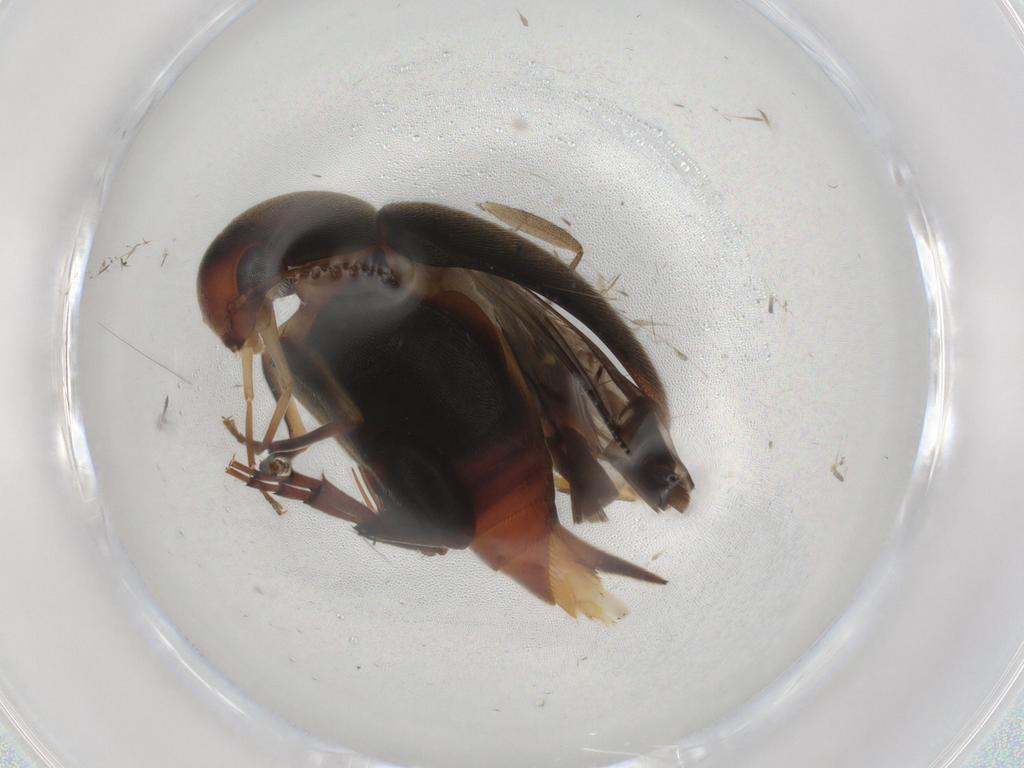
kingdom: Animalia
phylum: Arthropoda
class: Insecta
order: Coleoptera
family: Mordellidae
